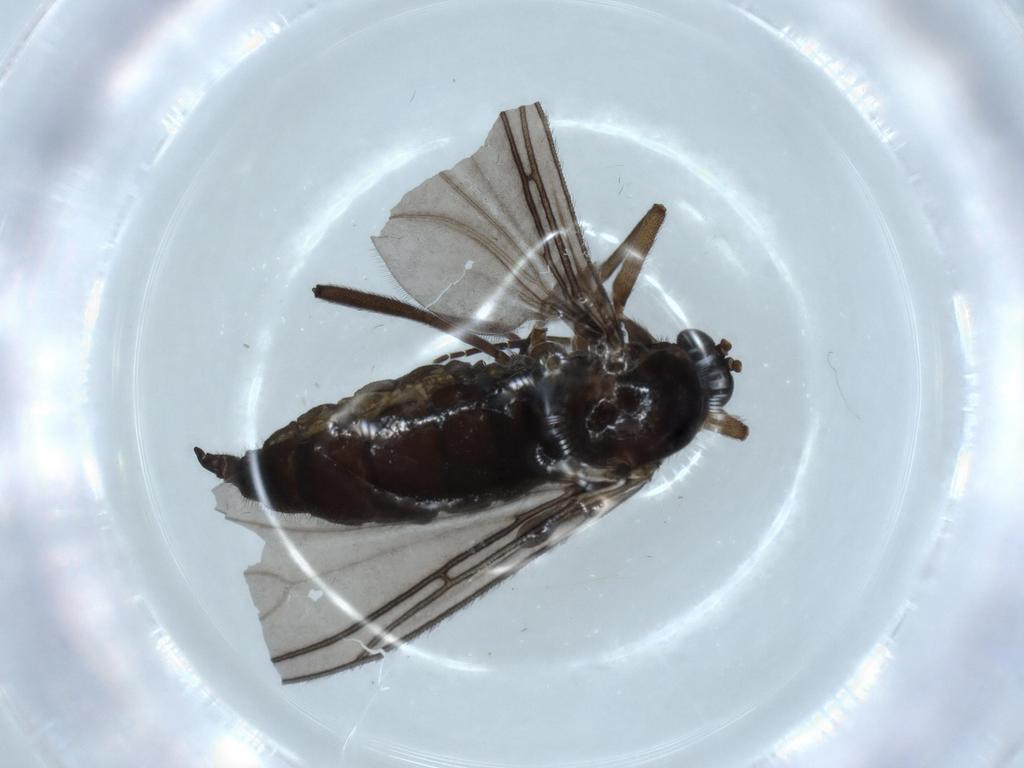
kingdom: Animalia
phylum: Arthropoda
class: Insecta
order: Diptera
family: Sciaridae
